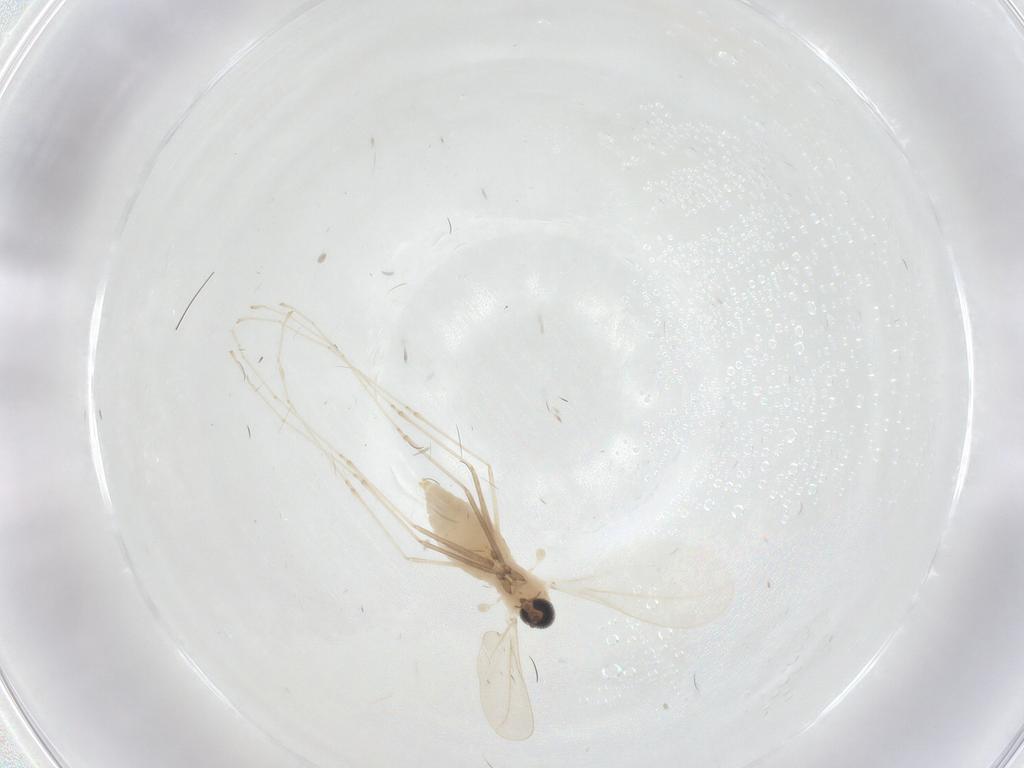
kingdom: Animalia
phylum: Arthropoda
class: Insecta
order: Diptera
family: Cecidomyiidae
